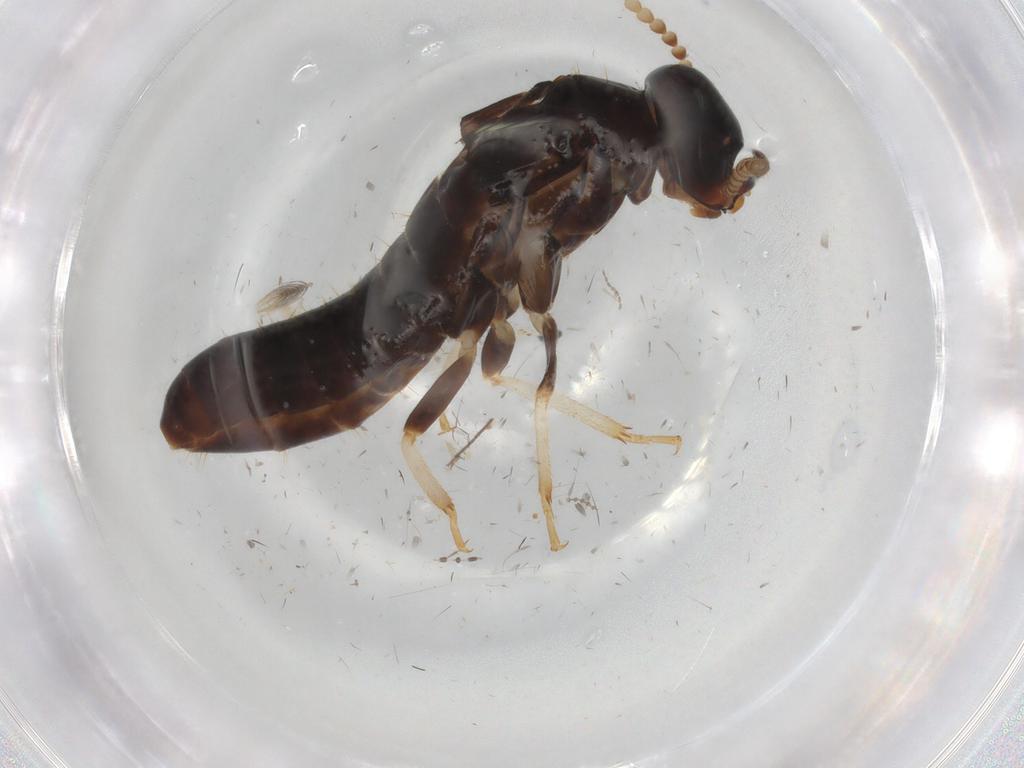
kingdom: Animalia
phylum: Arthropoda
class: Insecta
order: Blattodea
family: Kalotermitidae
